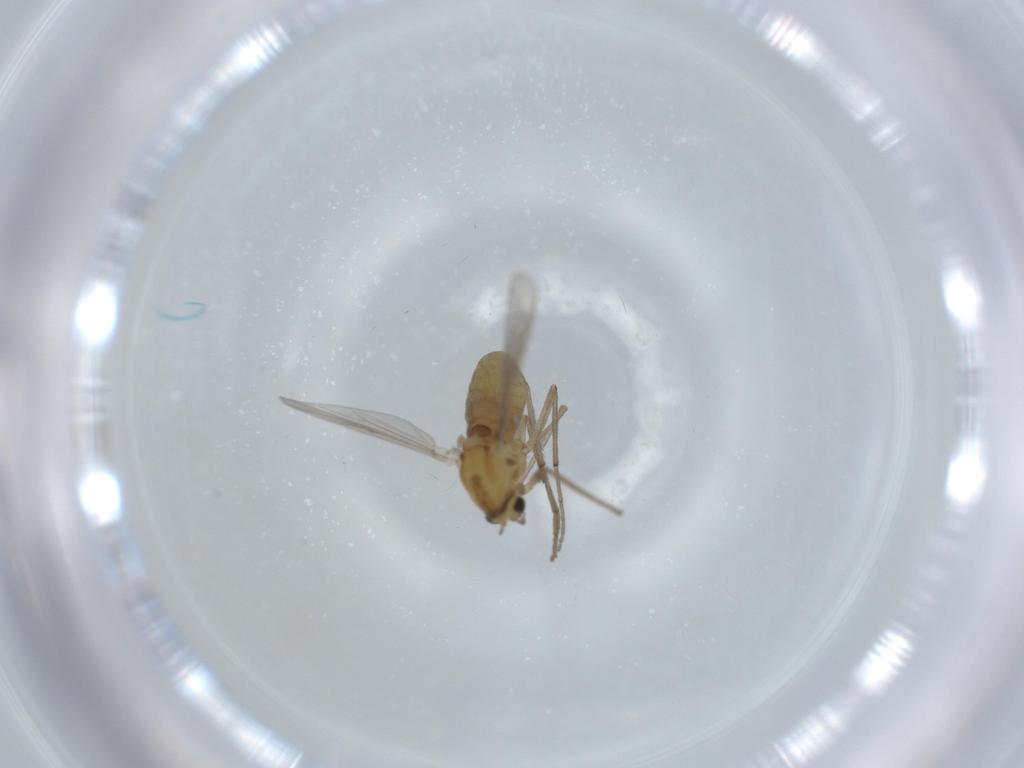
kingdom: Animalia
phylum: Arthropoda
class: Insecta
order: Diptera
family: Chironomidae
